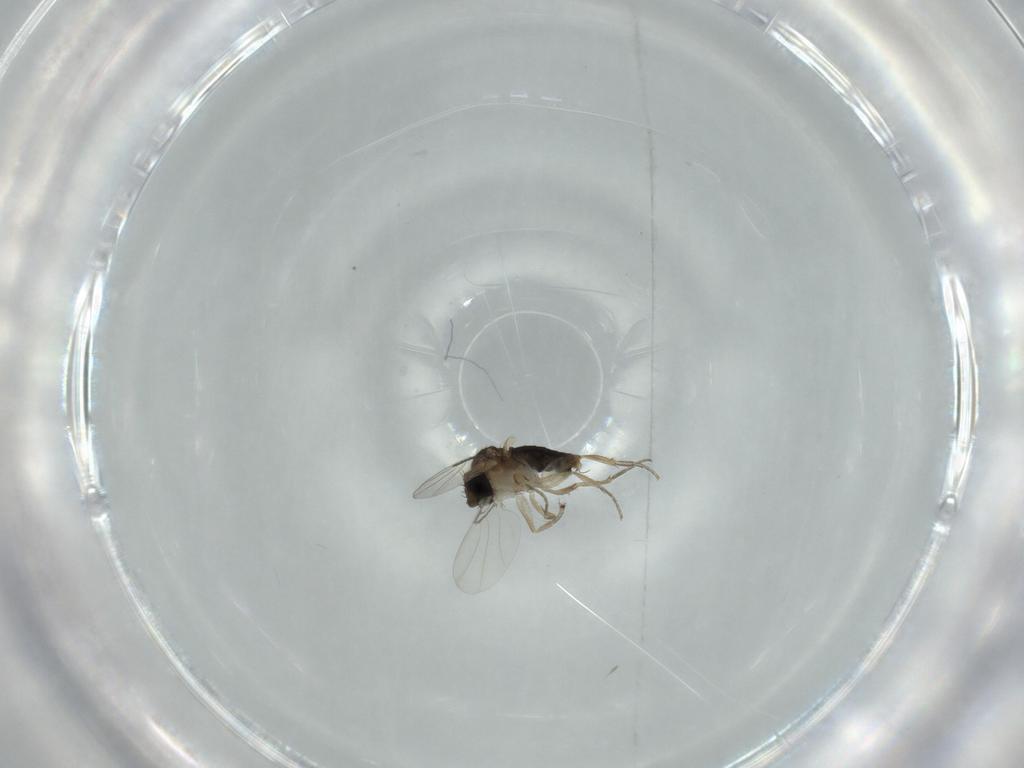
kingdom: Animalia
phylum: Arthropoda
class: Insecta
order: Diptera
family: Phoridae
